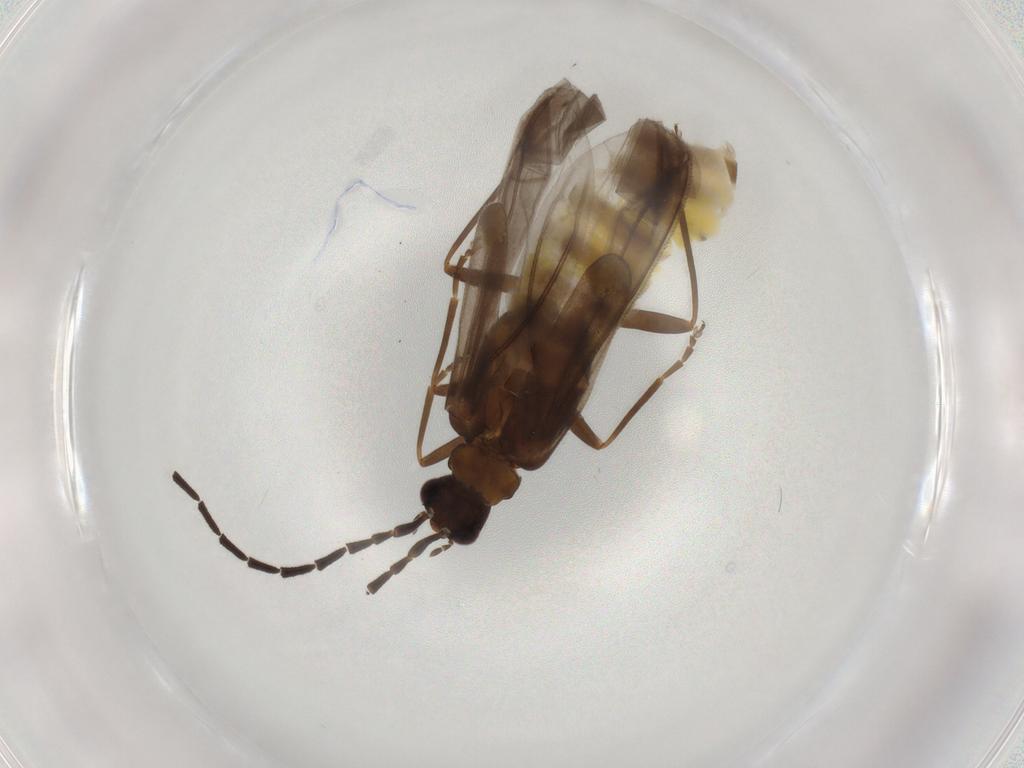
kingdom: Animalia
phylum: Arthropoda
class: Insecta
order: Coleoptera
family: Cantharidae
